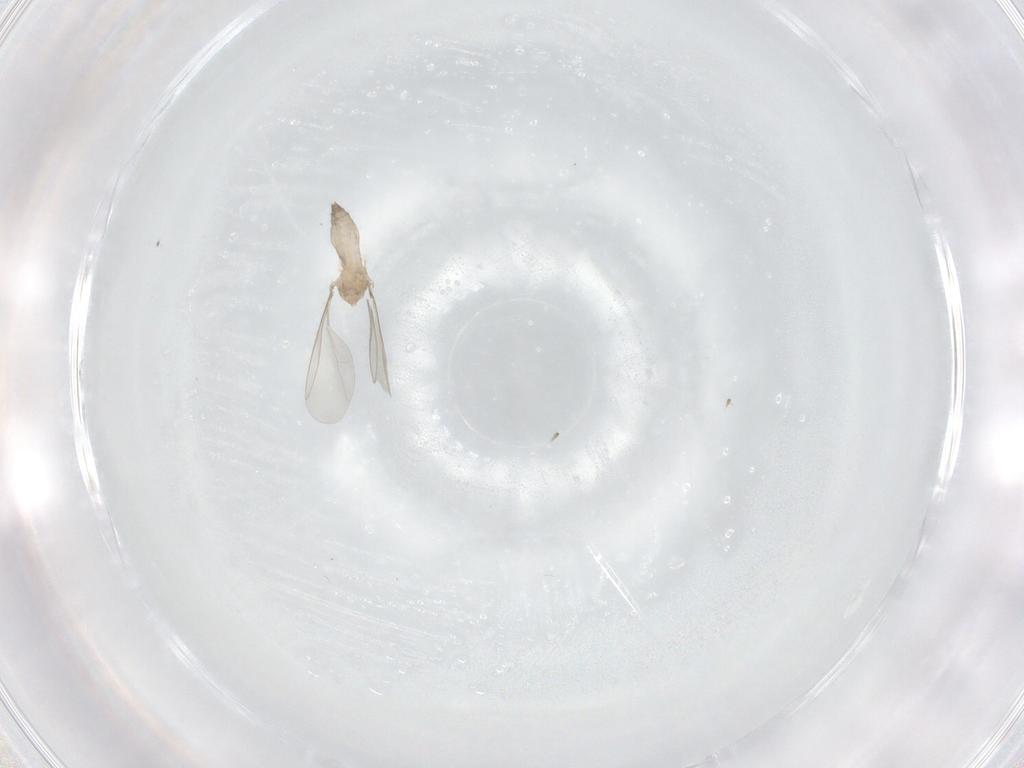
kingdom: Animalia
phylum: Arthropoda
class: Insecta
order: Diptera
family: Cecidomyiidae
